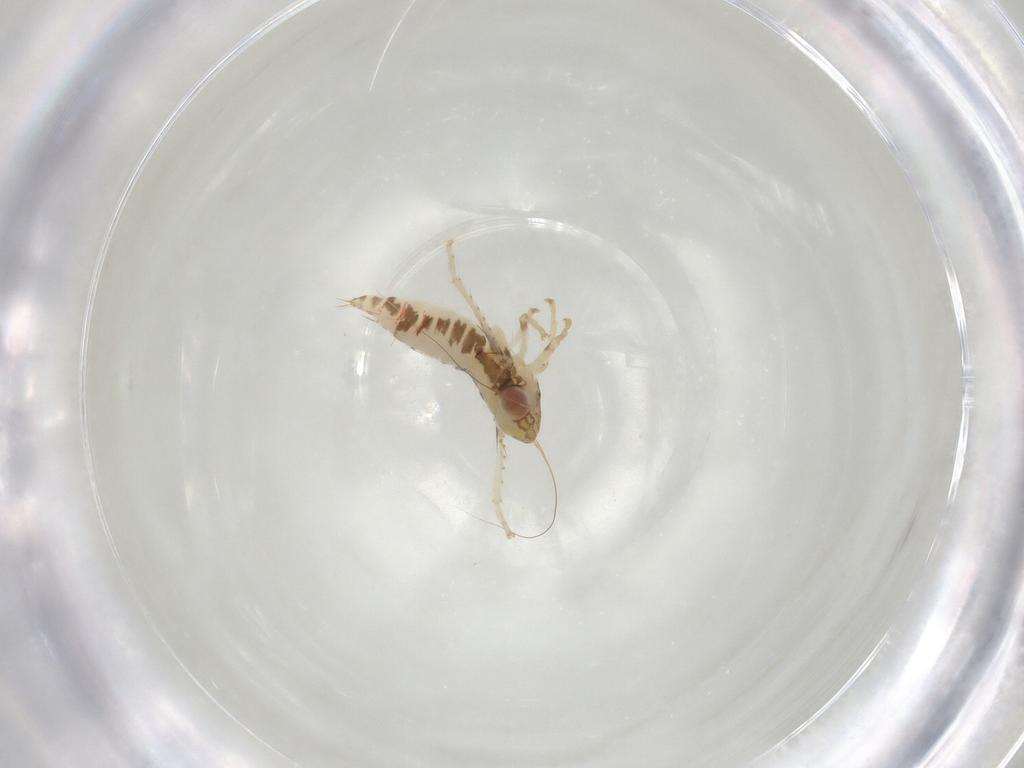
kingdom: Animalia
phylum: Arthropoda
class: Insecta
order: Hemiptera
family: Cicadellidae
